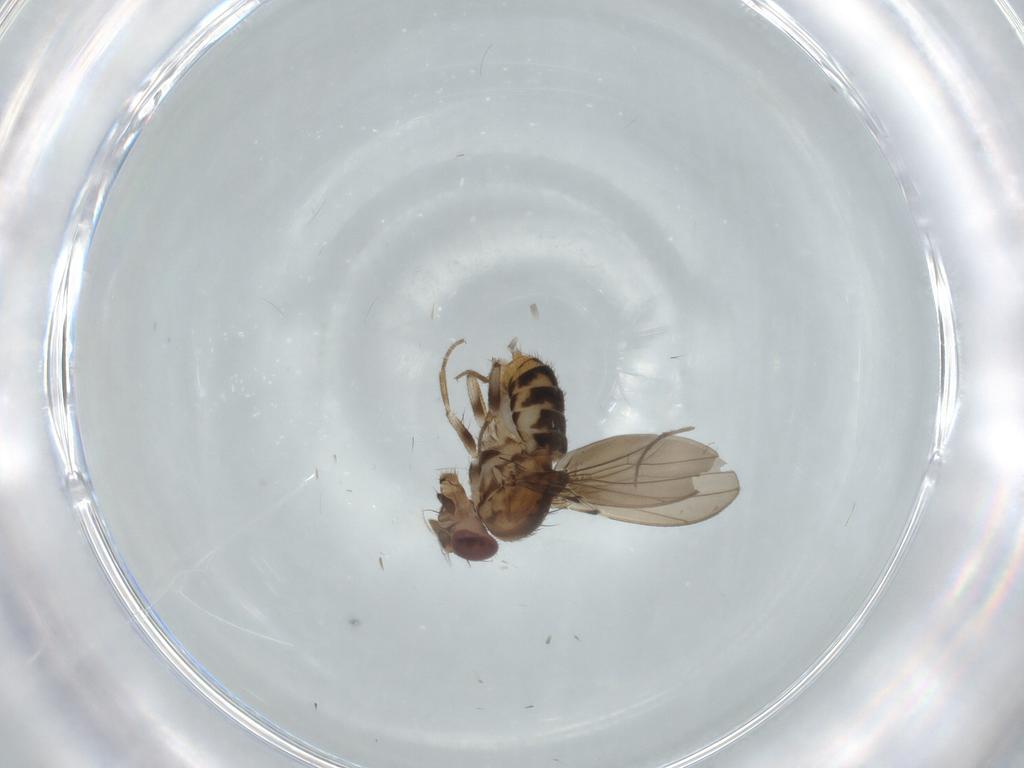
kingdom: Animalia
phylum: Arthropoda
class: Insecta
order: Diptera
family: Drosophilidae
